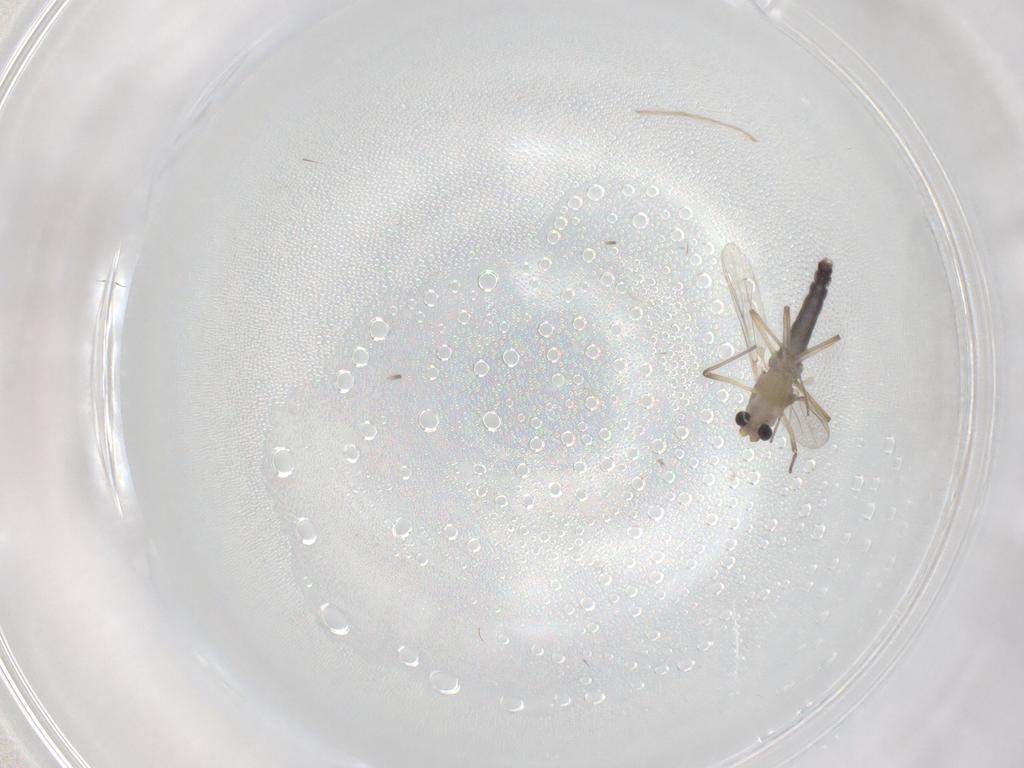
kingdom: Animalia
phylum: Arthropoda
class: Insecta
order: Diptera
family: Chironomidae
